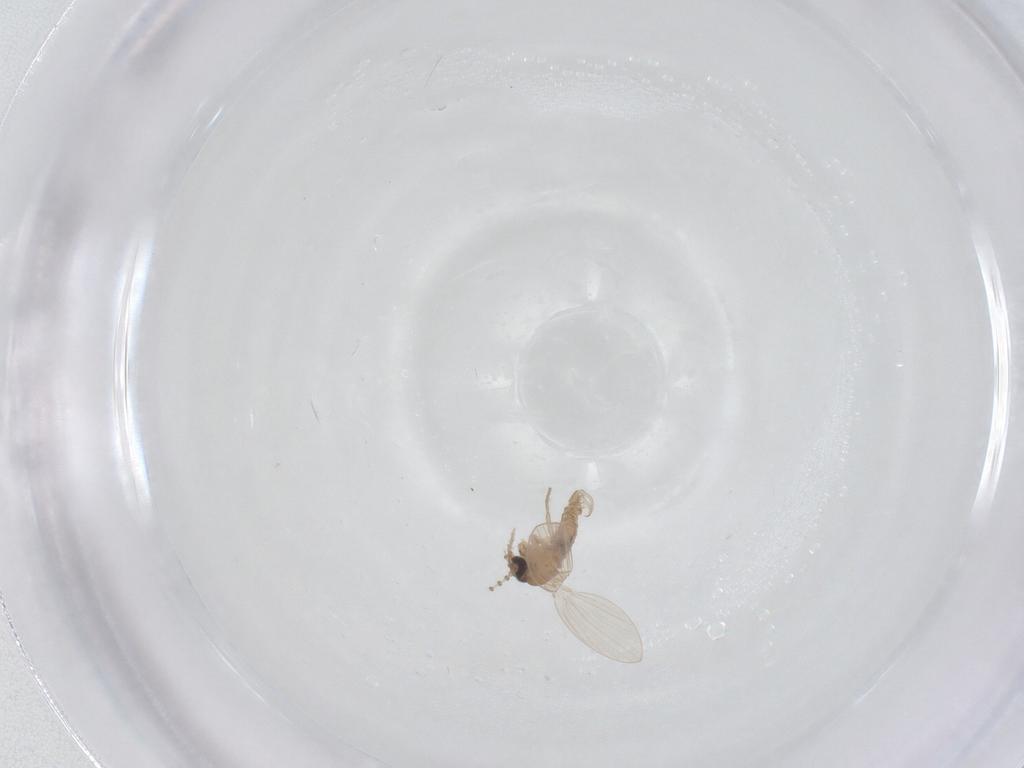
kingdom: Animalia
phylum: Arthropoda
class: Insecta
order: Diptera
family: Psychodidae
